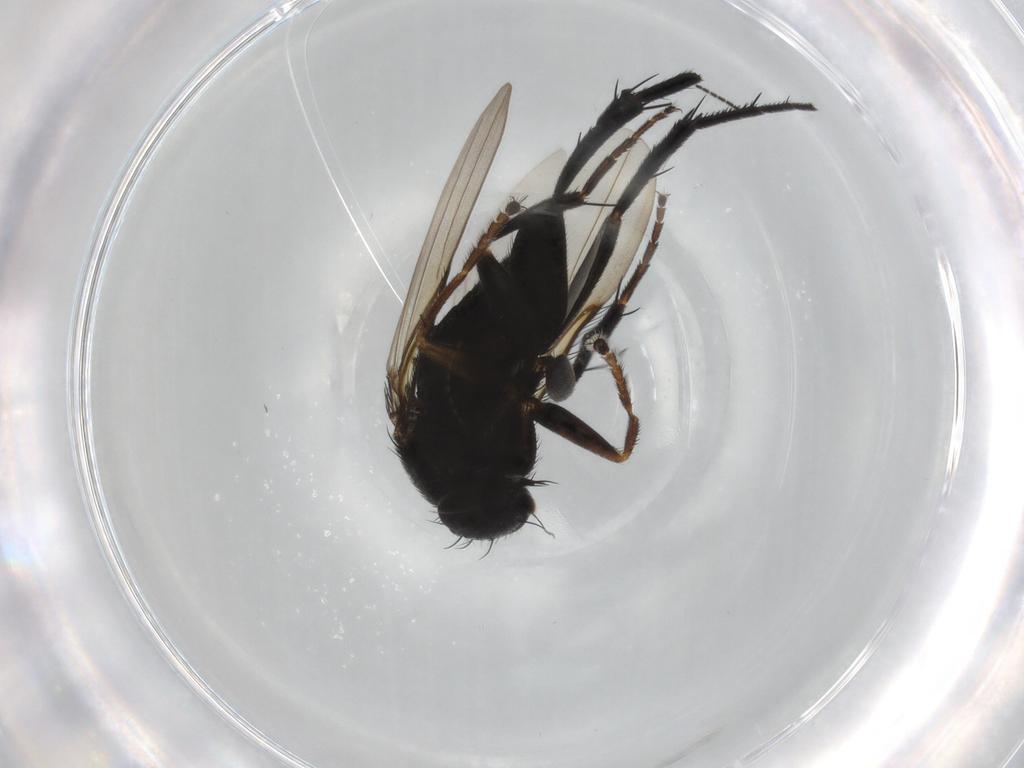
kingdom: Animalia
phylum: Arthropoda
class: Insecta
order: Diptera
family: Phoridae
